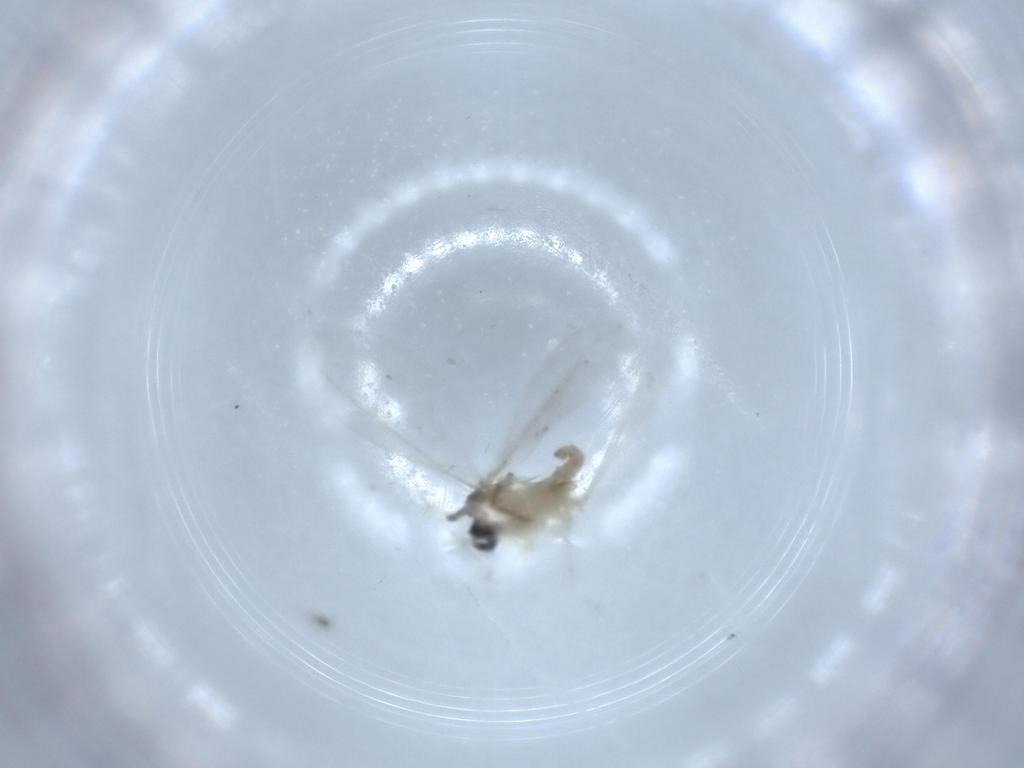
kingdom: Animalia
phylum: Arthropoda
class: Insecta
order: Diptera
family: Cecidomyiidae
